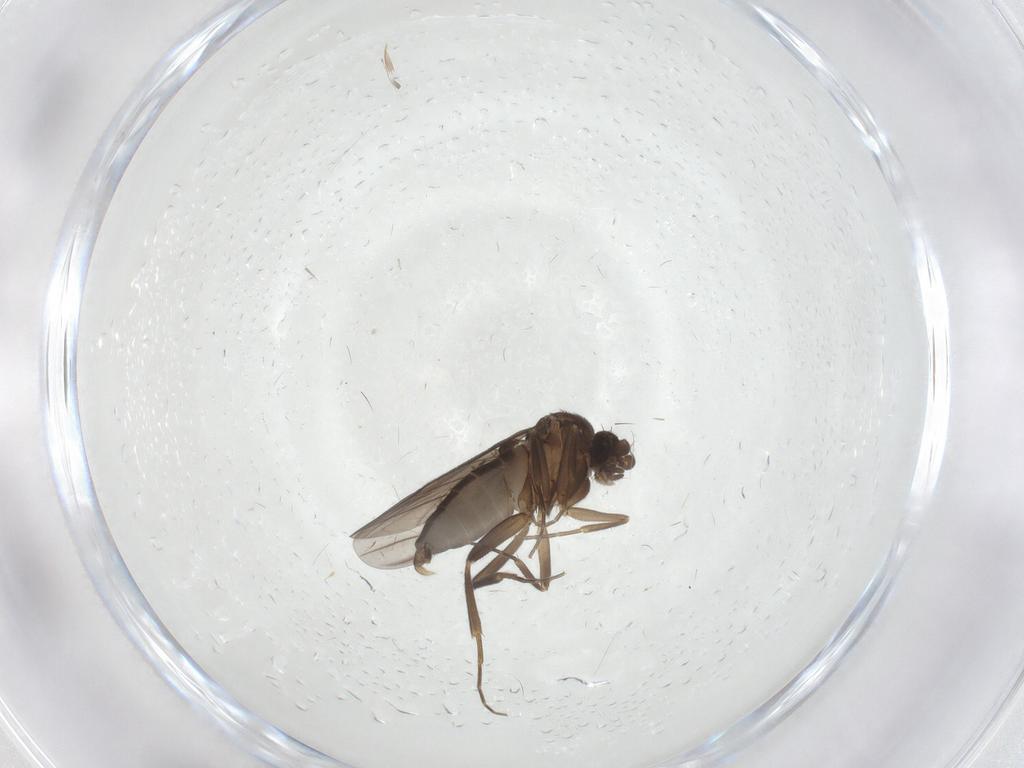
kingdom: Animalia
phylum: Arthropoda
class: Insecta
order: Diptera
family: Phoridae
